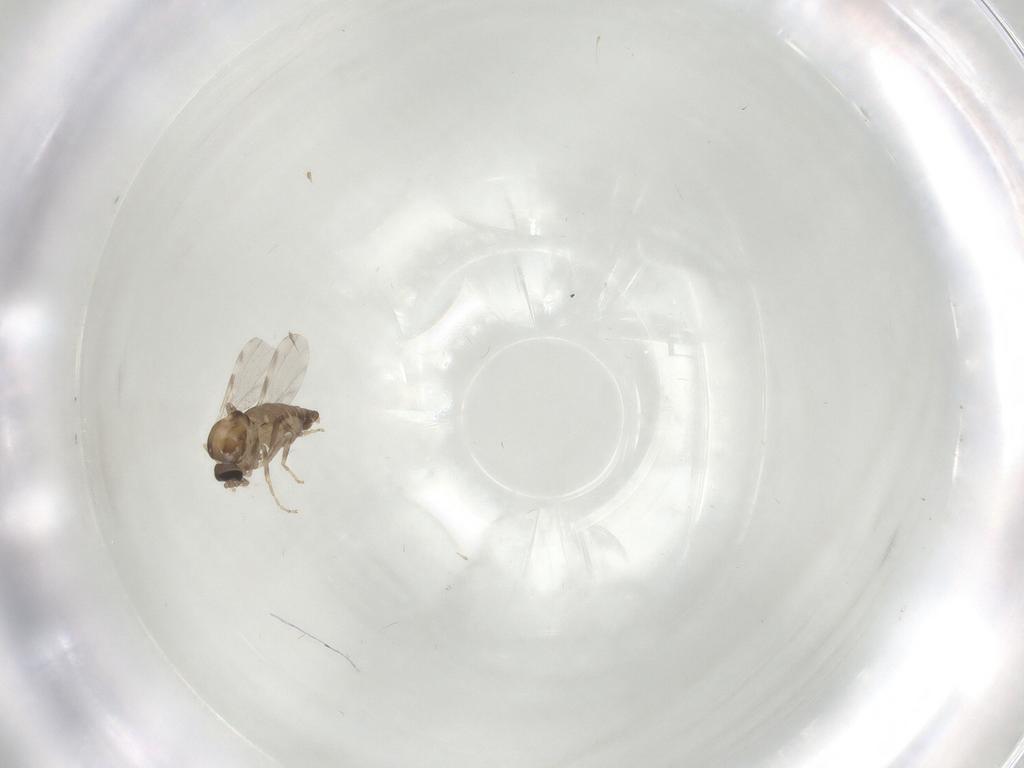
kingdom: Animalia
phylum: Arthropoda
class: Insecta
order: Diptera
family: Ceratopogonidae
